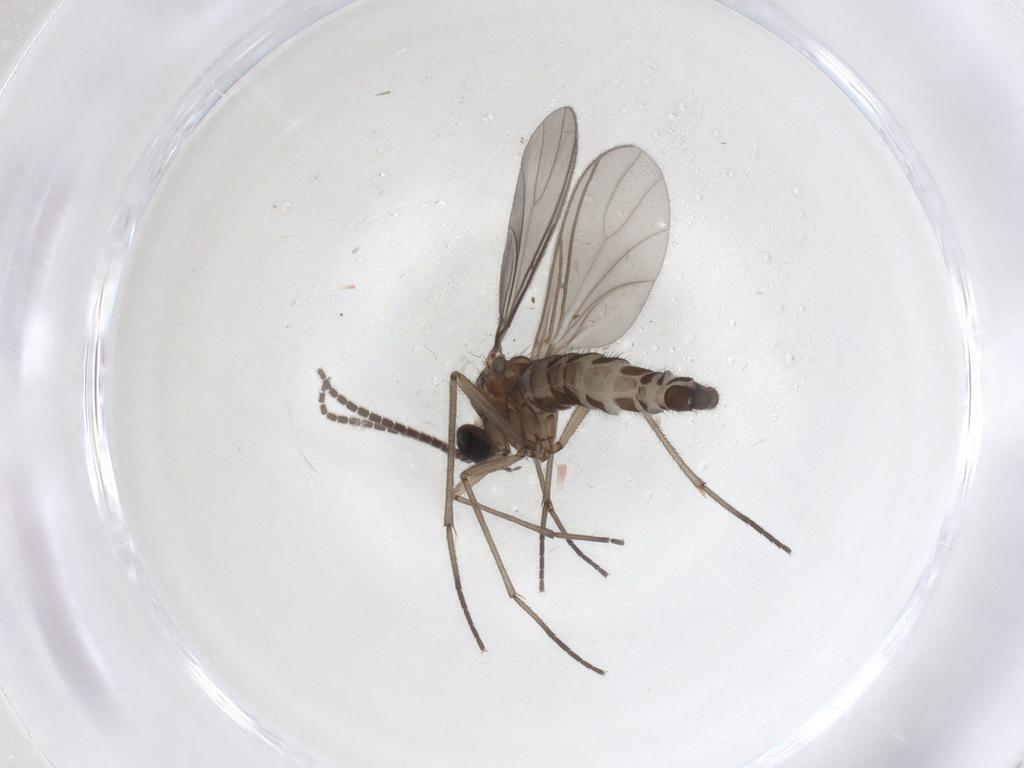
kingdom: Animalia
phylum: Arthropoda
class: Insecta
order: Diptera
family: Sciaridae
